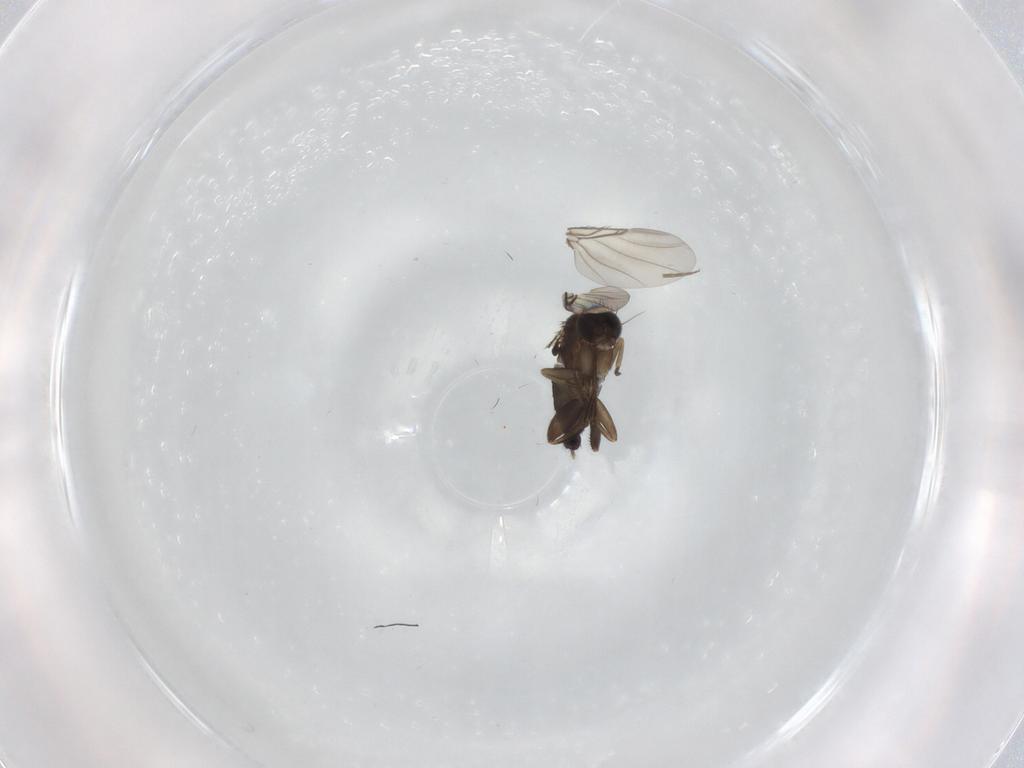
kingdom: Animalia
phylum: Arthropoda
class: Insecta
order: Diptera
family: Phoridae
